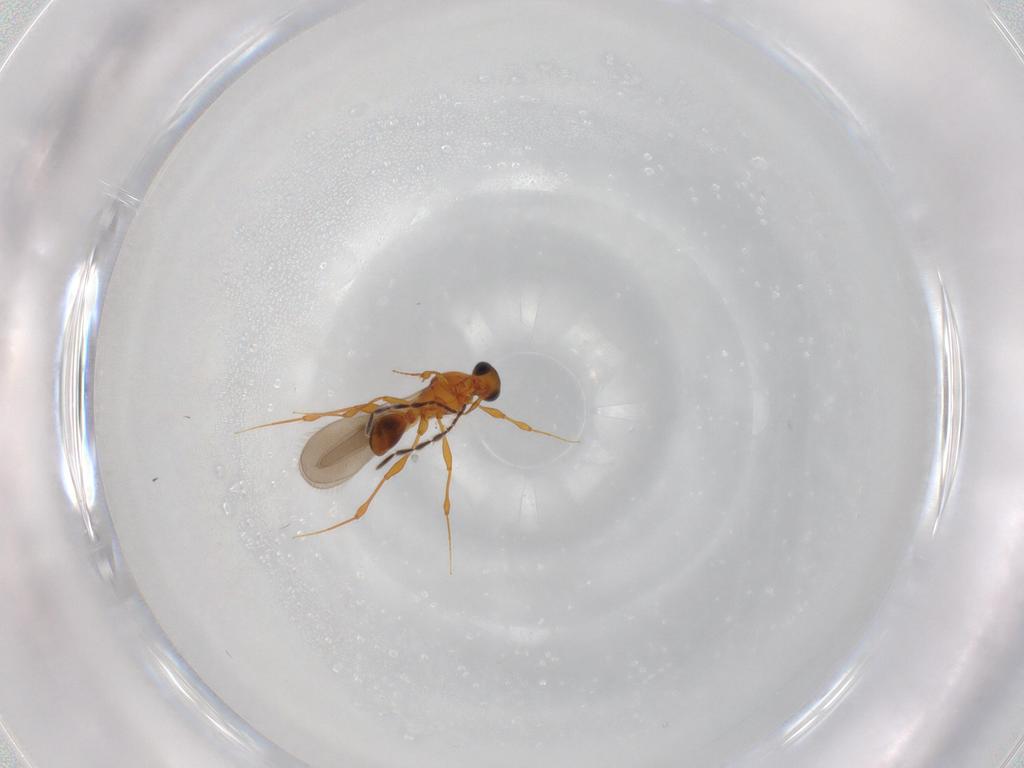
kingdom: Animalia
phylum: Arthropoda
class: Insecta
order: Hymenoptera
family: Platygastridae
